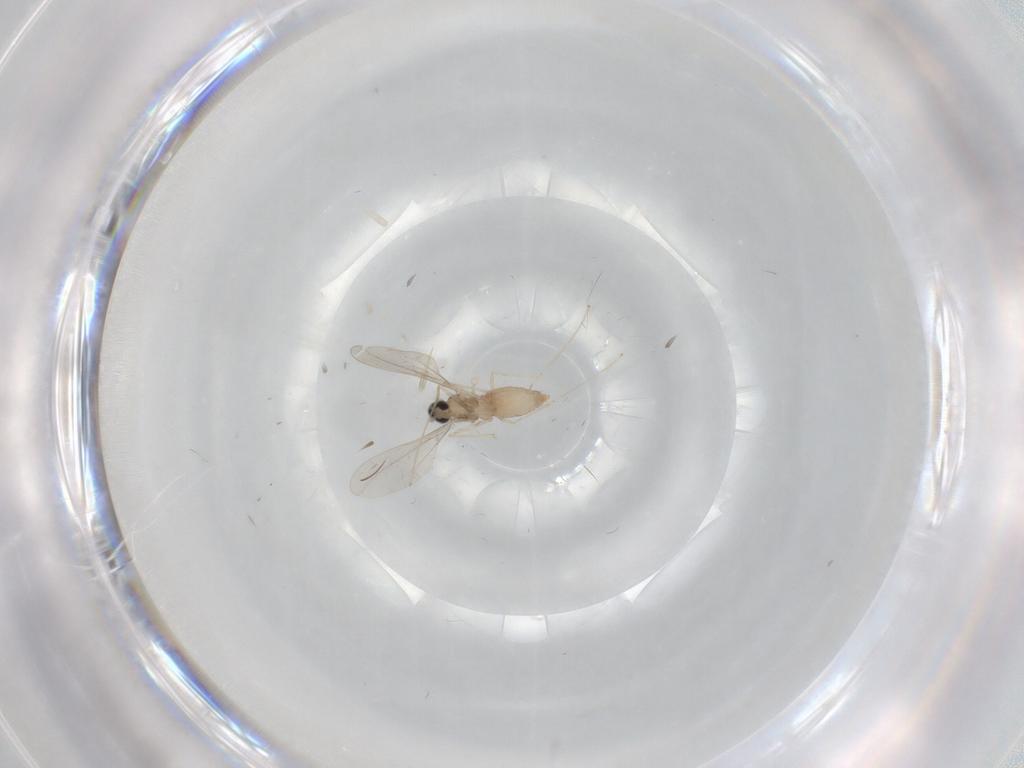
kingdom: Animalia
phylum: Arthropoda
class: Insecta
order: Diptera
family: Chironomidae
